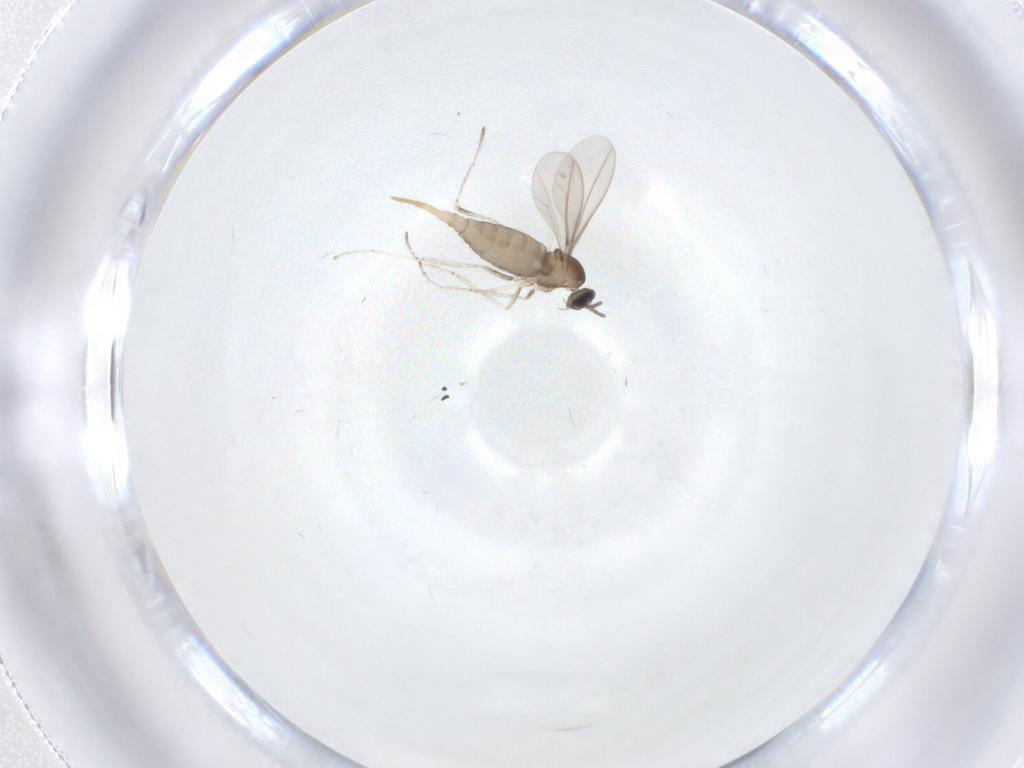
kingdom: Animalia
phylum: Arthropoda
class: Insecta
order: Diptera
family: Cecidomyiidae
